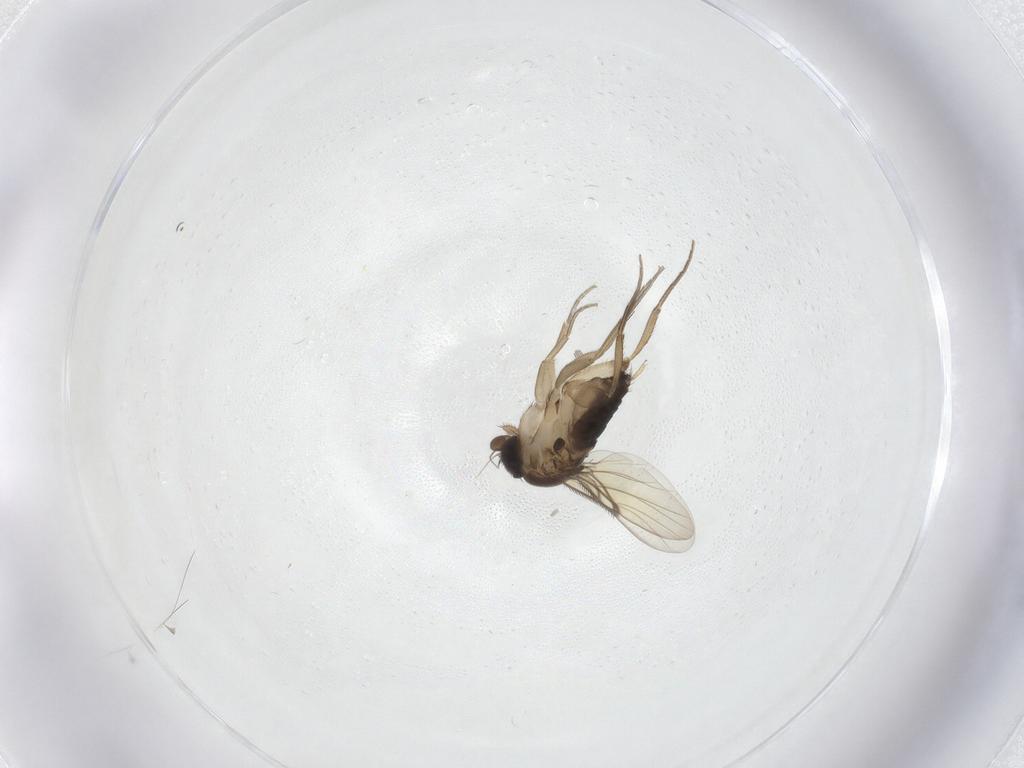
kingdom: Animalia
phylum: Arthropoda
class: Insecta
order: Diptera
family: Phoridae
